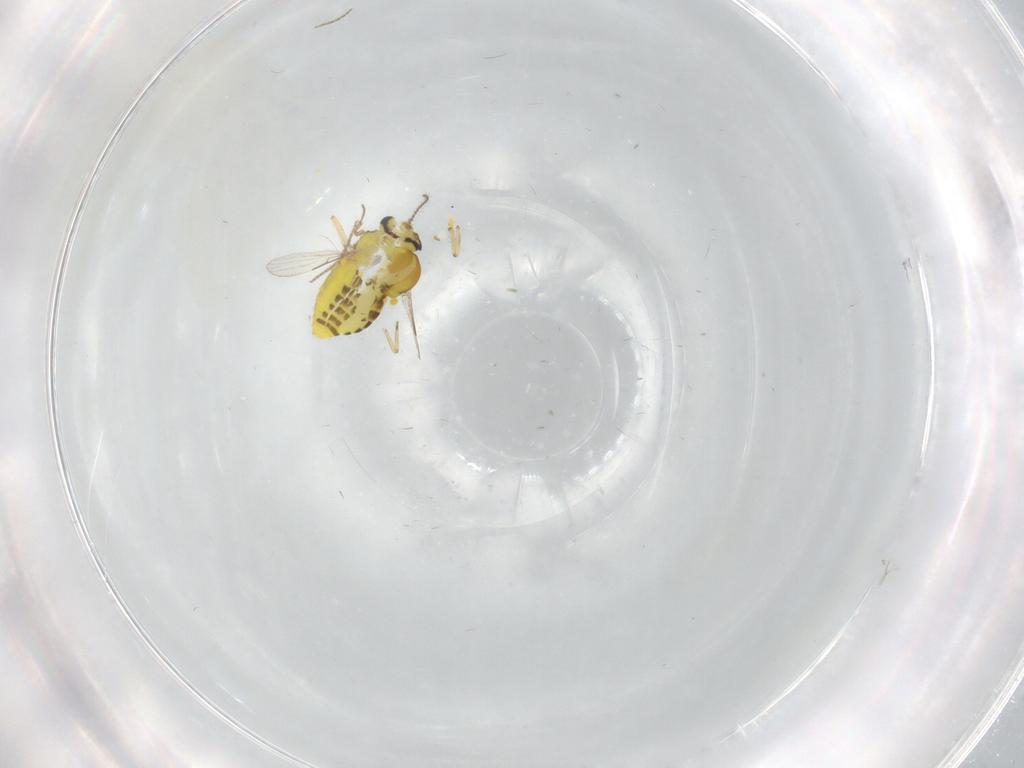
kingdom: Animalia
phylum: Arthropoda
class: Insecta
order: Diptera
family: Ceratopogonidae
